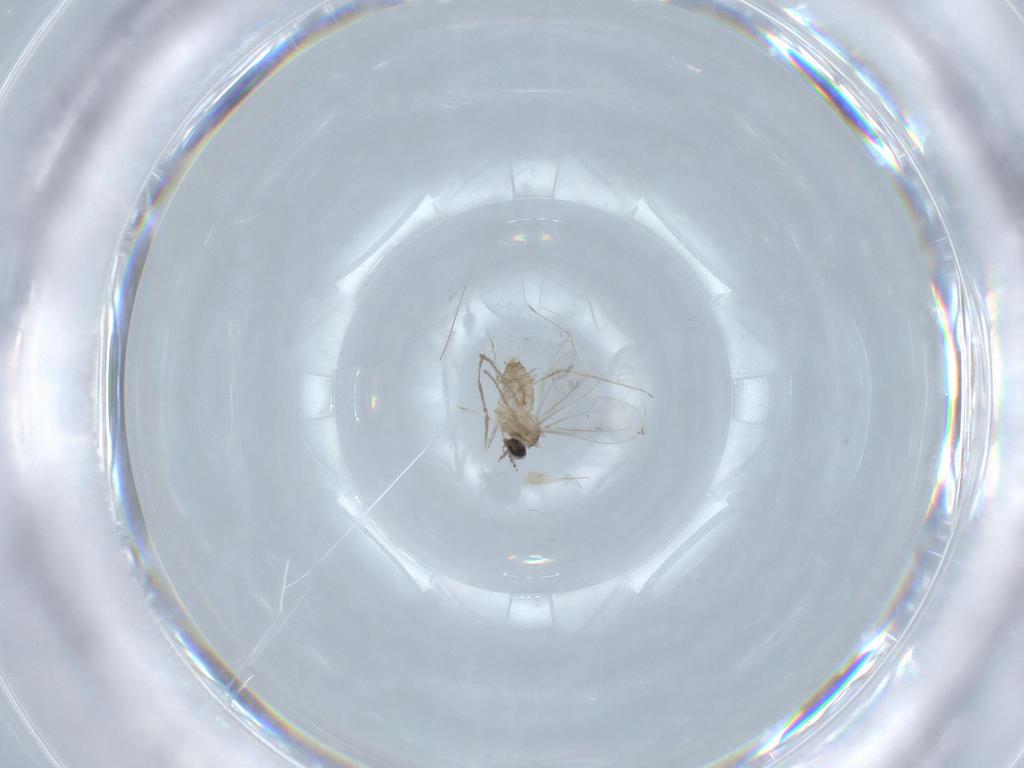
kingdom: Animalia
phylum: Arthropoda
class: Insecta
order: Diptera
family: Cecidomyiidae
